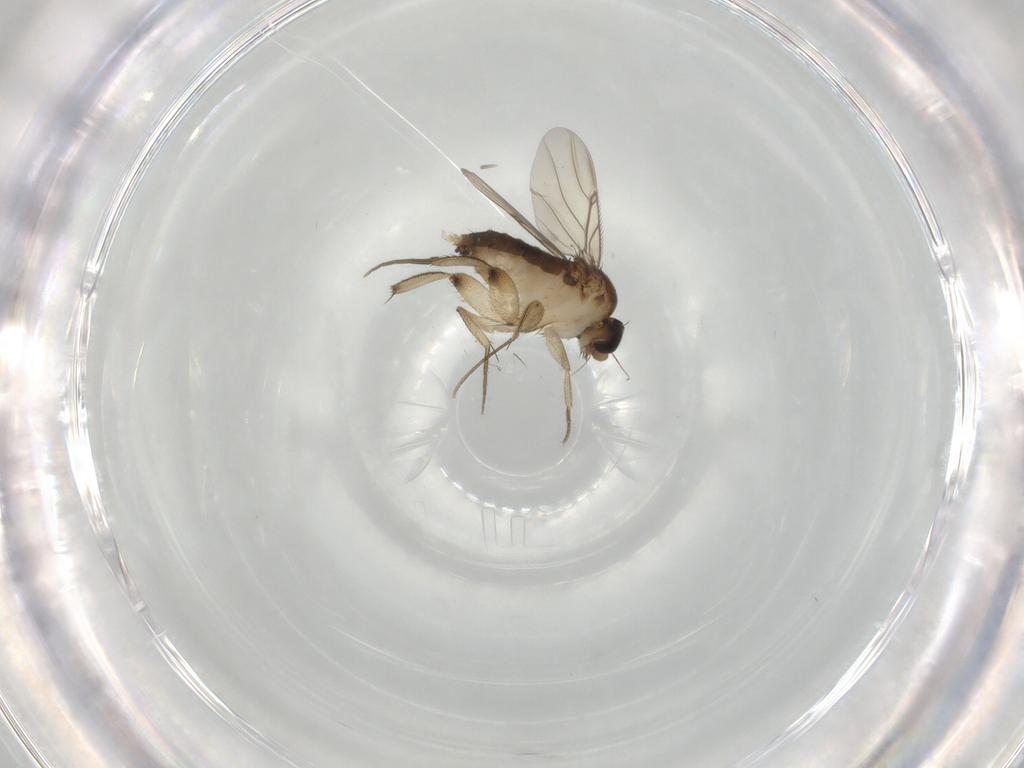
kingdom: Animalia
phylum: Arthropoda
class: Insecta
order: Diptera
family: Phoridae
